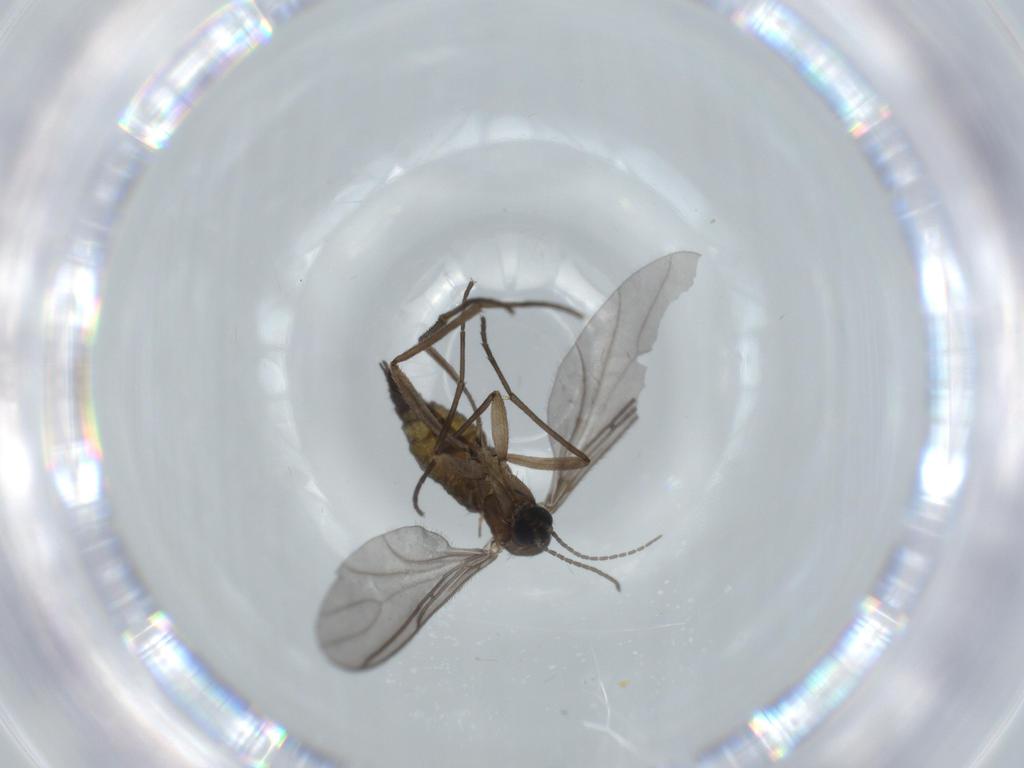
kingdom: Animalia
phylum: Arthropoda
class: Insecta
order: Diptera
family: Sciaridae
